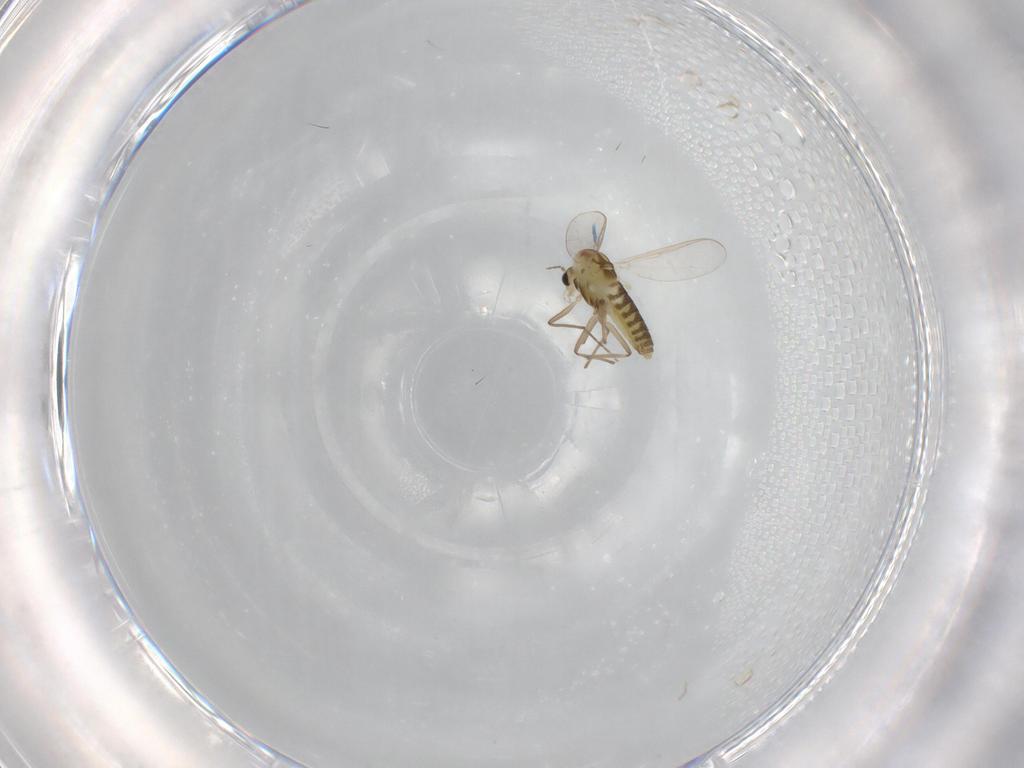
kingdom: Animalia
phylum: Arthropoda
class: Insecta
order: Diptera
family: Chironomidae
